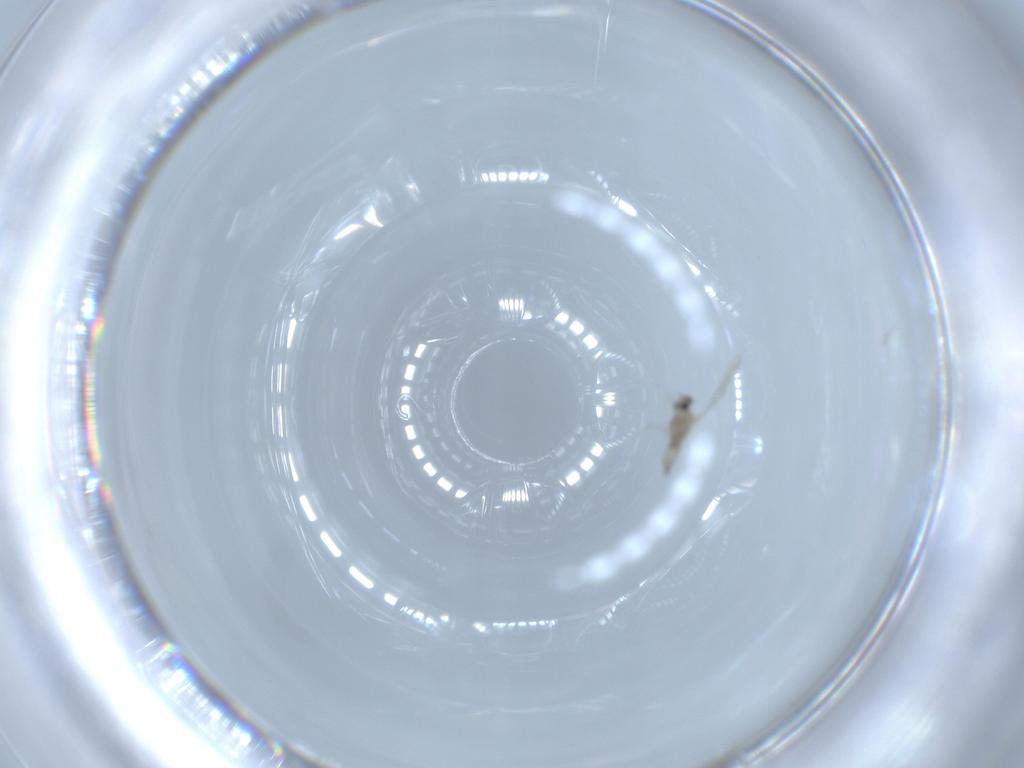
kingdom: Animalia
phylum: Arthropoda
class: Insecta
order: Diptera
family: Cecidomyiidae
